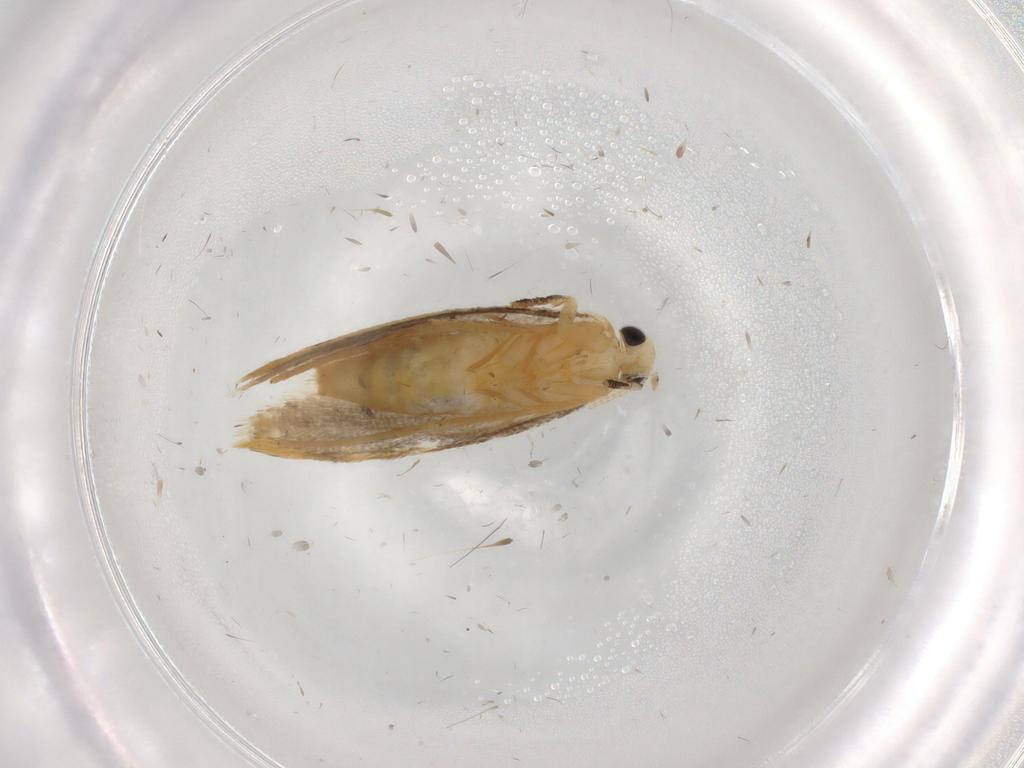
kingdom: Animalia
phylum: Arthropoda
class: Insecta
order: Lepidoptera
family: Tineidae
